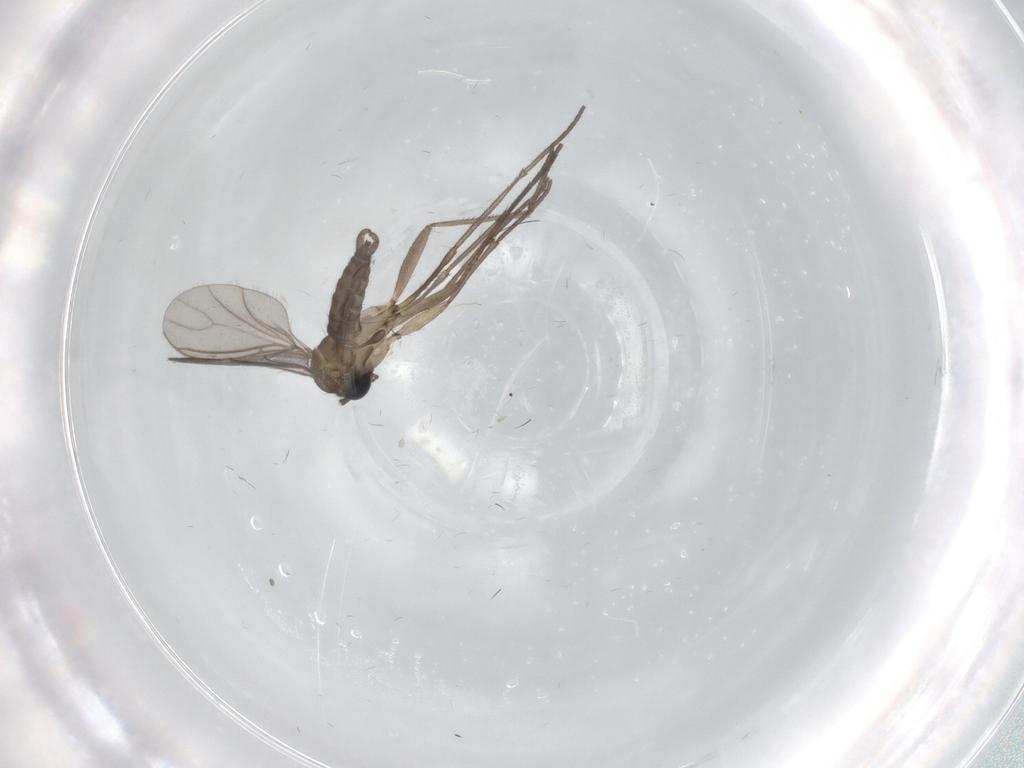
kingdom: Animalia
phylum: Arthropoda
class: Insecta
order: Diptera
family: Sciaridae
